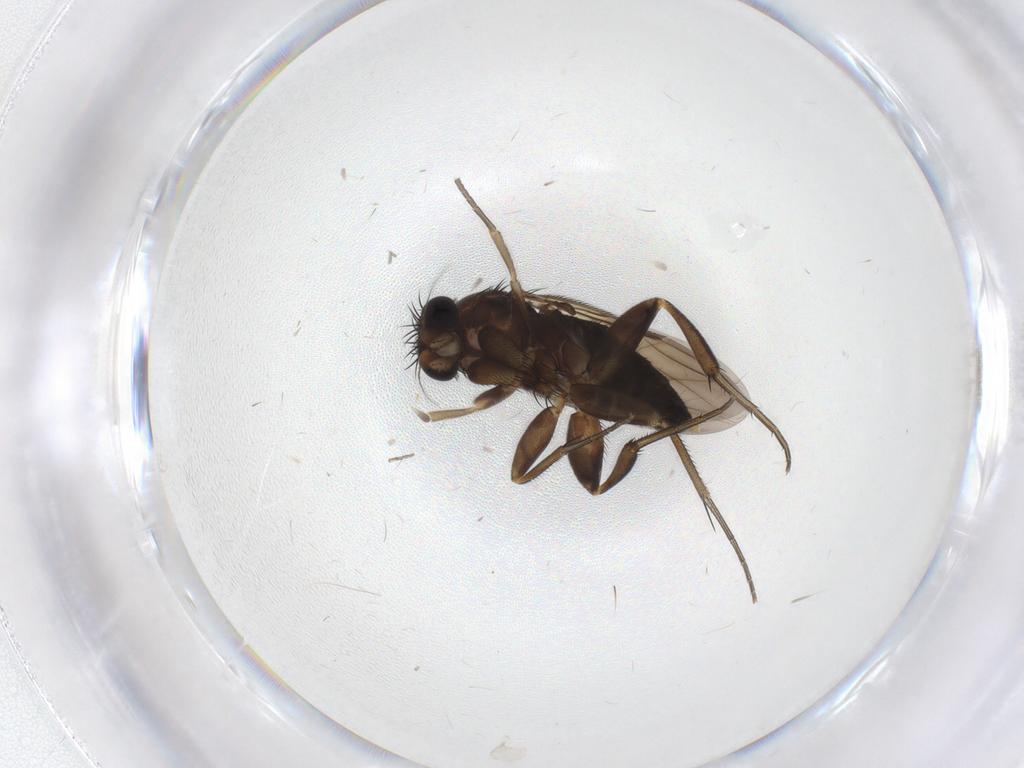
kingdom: Animalia
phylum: Arthropoda
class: Insecta
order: Diptera
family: Phoridae
